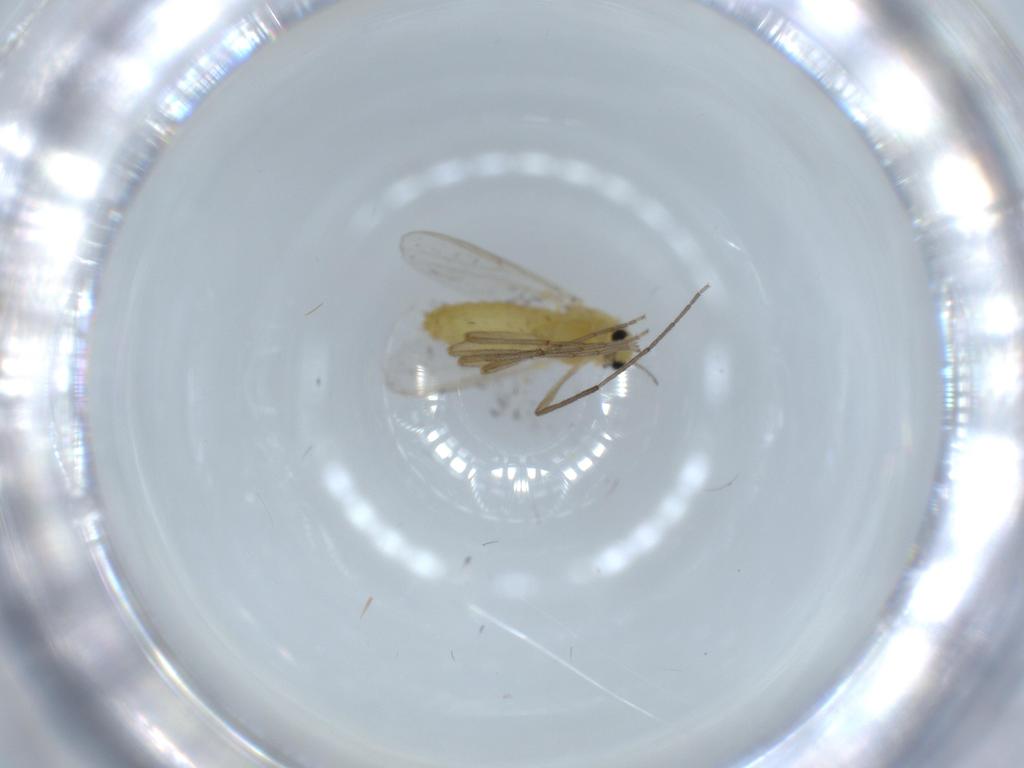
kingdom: Animalia
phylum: Arthropoda
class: Insecta
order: Diptera
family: Chironomidae
